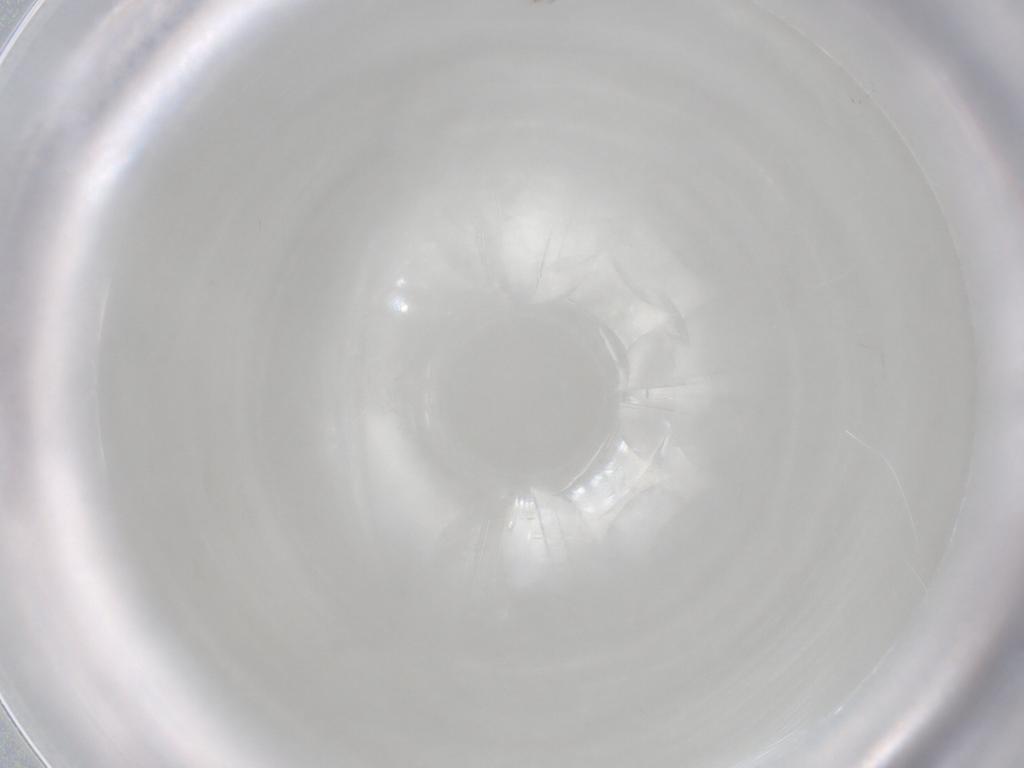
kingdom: Animalia
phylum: Arthropoda
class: Insecta
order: Hymenoptera
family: Mymaridae
